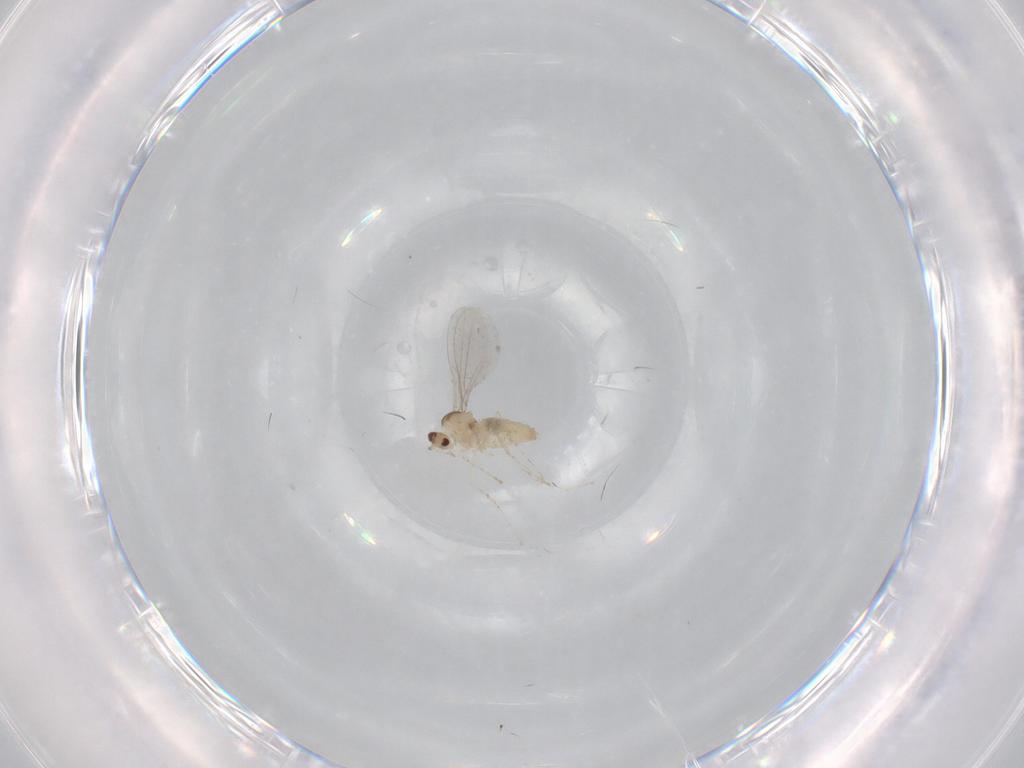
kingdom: Animalia
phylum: Arthropoda
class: Insecta
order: Diptera
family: Cecidomyiidae
